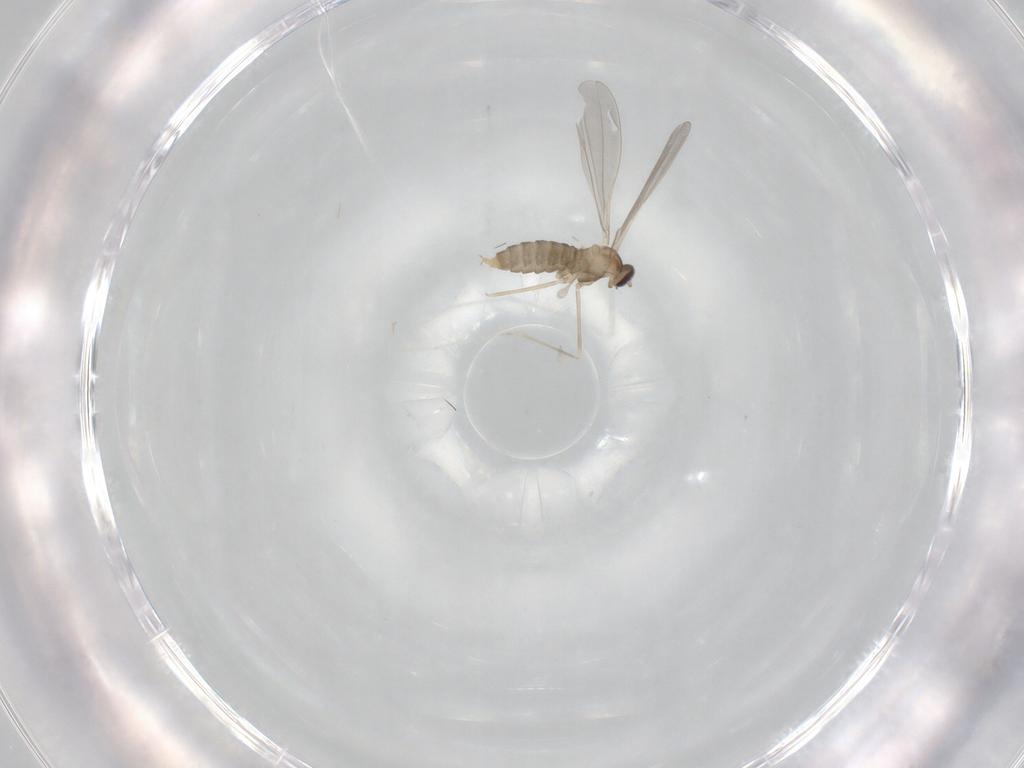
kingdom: Animalia
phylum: Arthropoda
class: Insecta
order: Diptera
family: Cecidomyiidae
